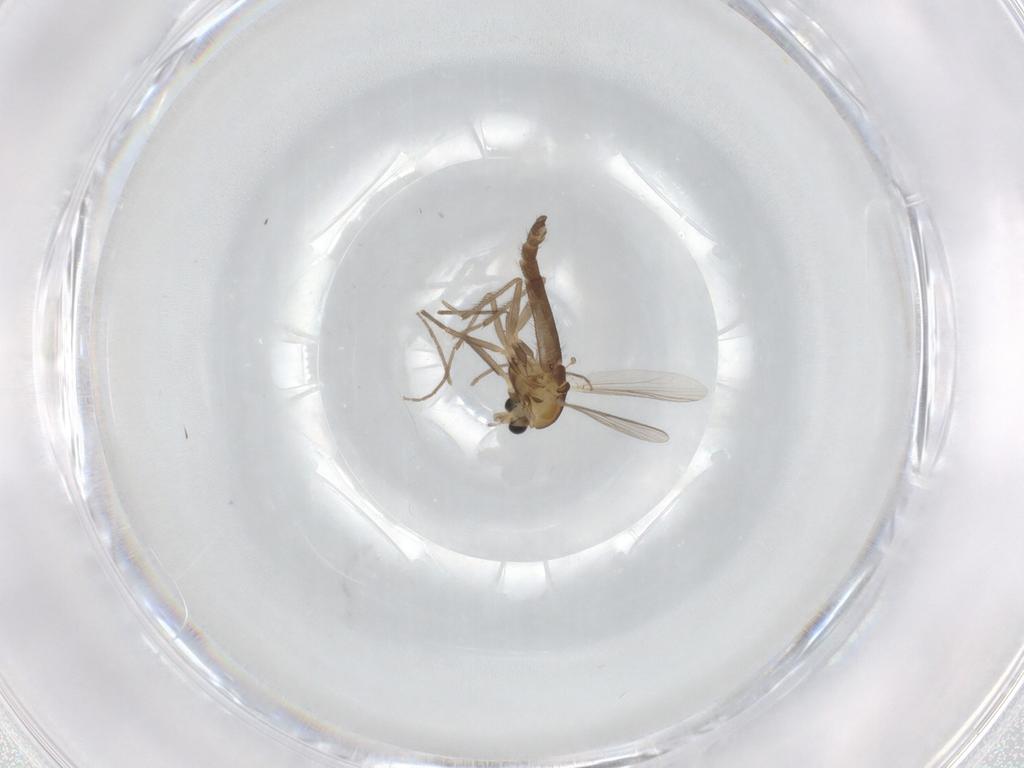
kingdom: Animalia
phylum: Arthropoda
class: Insecta
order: Diptera
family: Chironomidae
